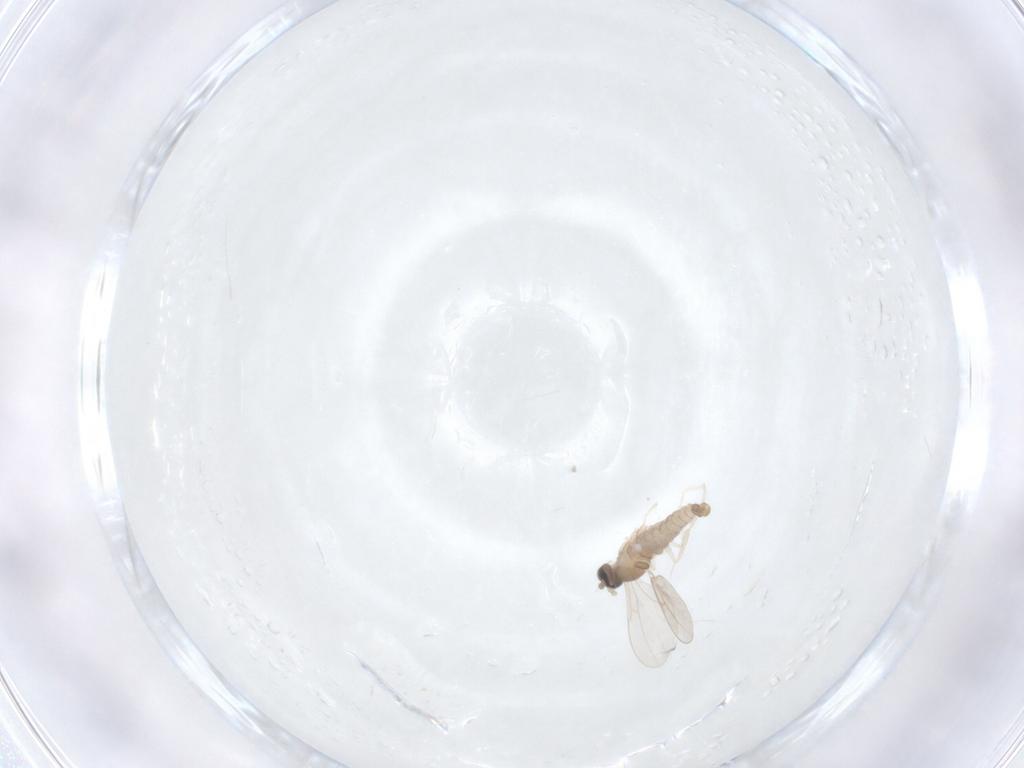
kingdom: Animalia
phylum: Arthropoda
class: Insecta
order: Diptera
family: Cecidomyiidae
